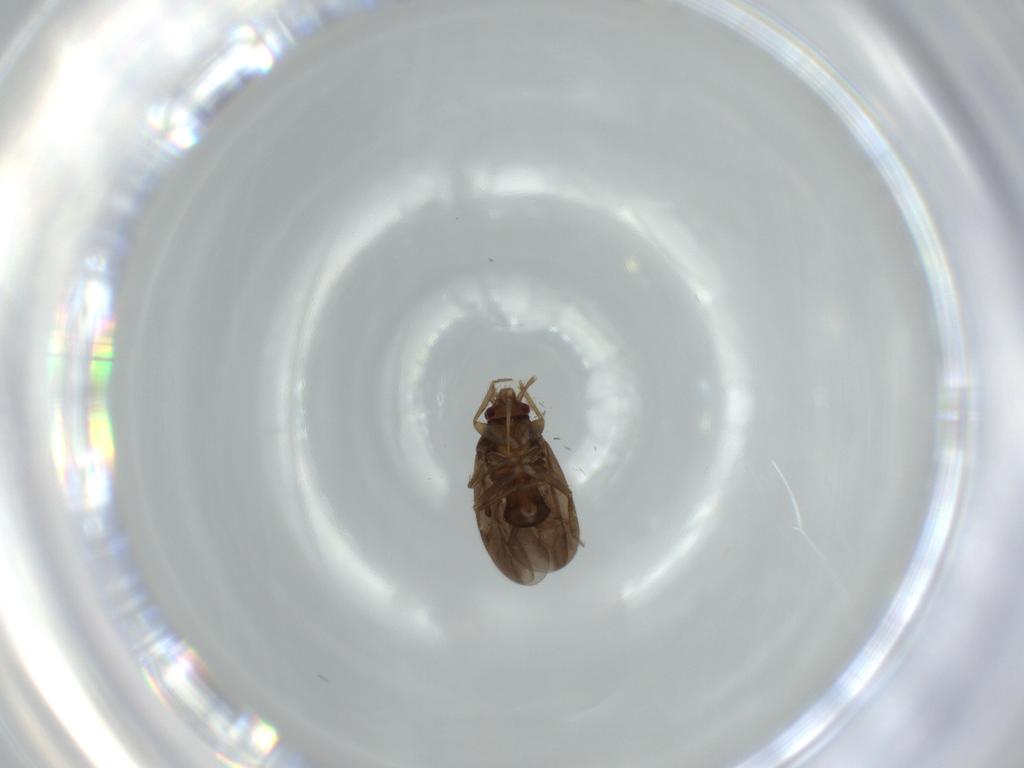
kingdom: Animalia
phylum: Arthropoda
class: Insecta
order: Hemiptera
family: Ceratocombidae
